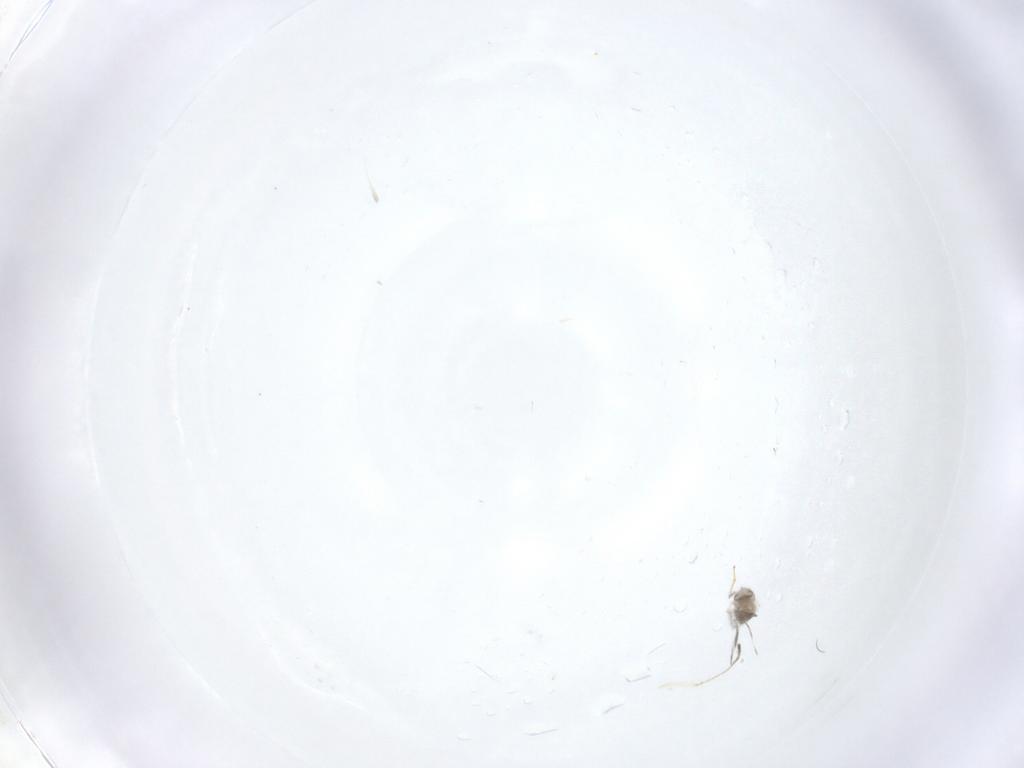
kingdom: Animalia
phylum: Arthropoda
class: Insecta
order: Diptera
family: Cecidomyiidae
